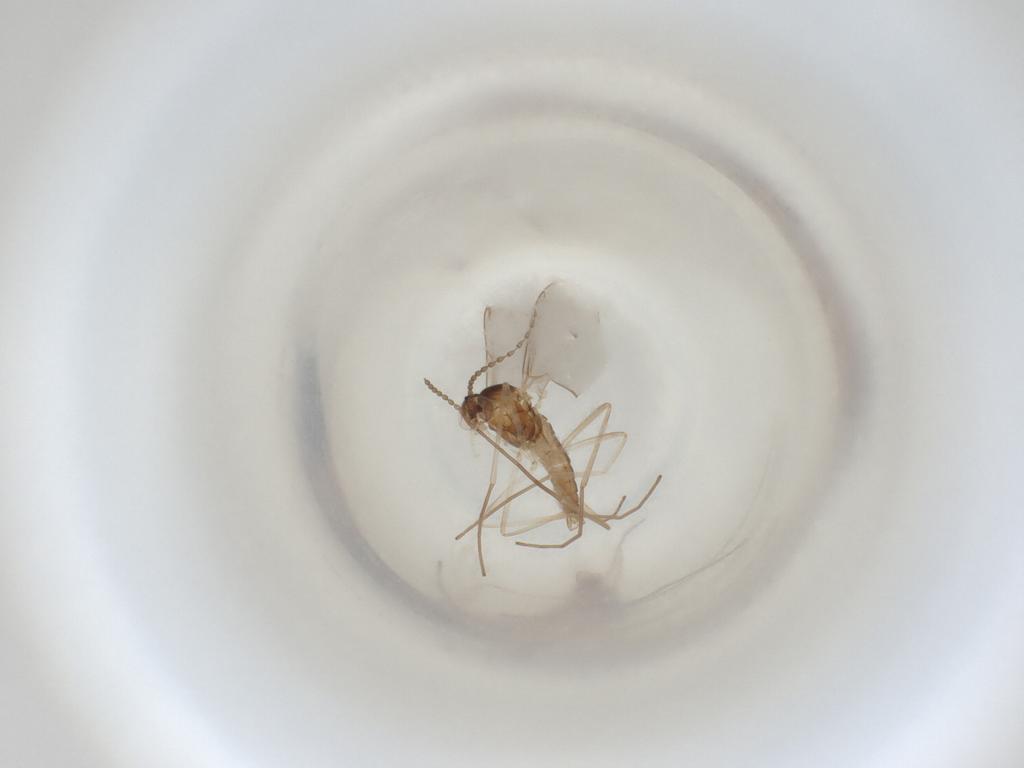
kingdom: Animalia
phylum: Arthropoda
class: Insecta
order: Diptera
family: Cecidomyiidae
